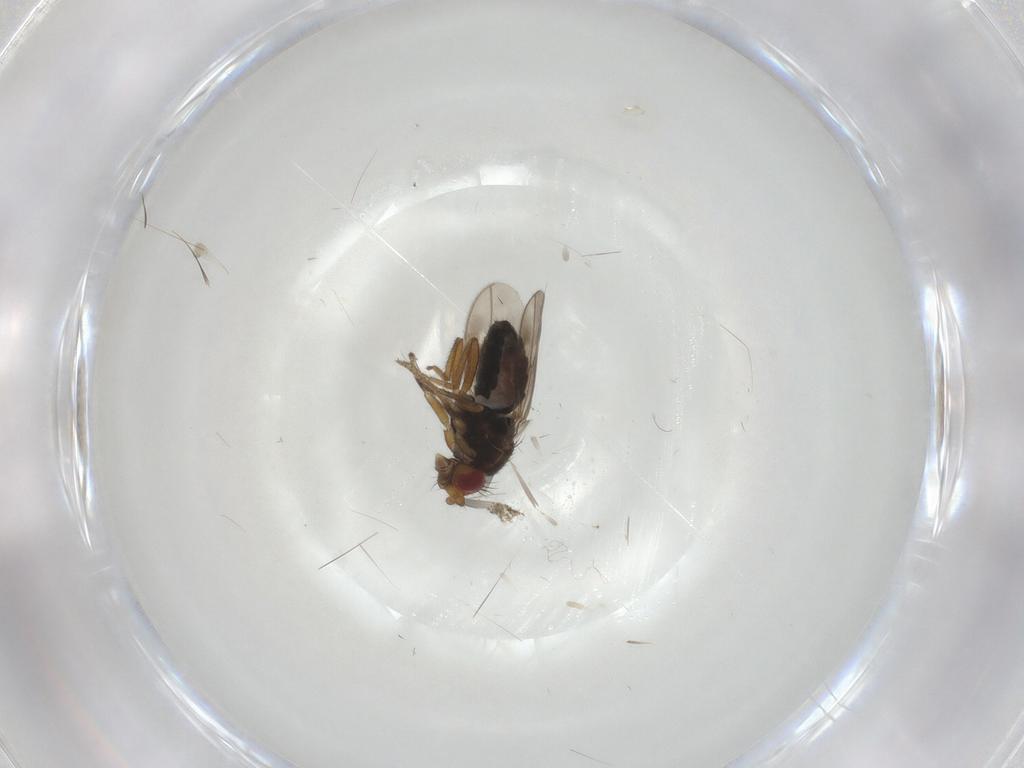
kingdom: Animalia
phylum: Arthropoda
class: Insecta
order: Diptera
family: Sphaeroceridae
